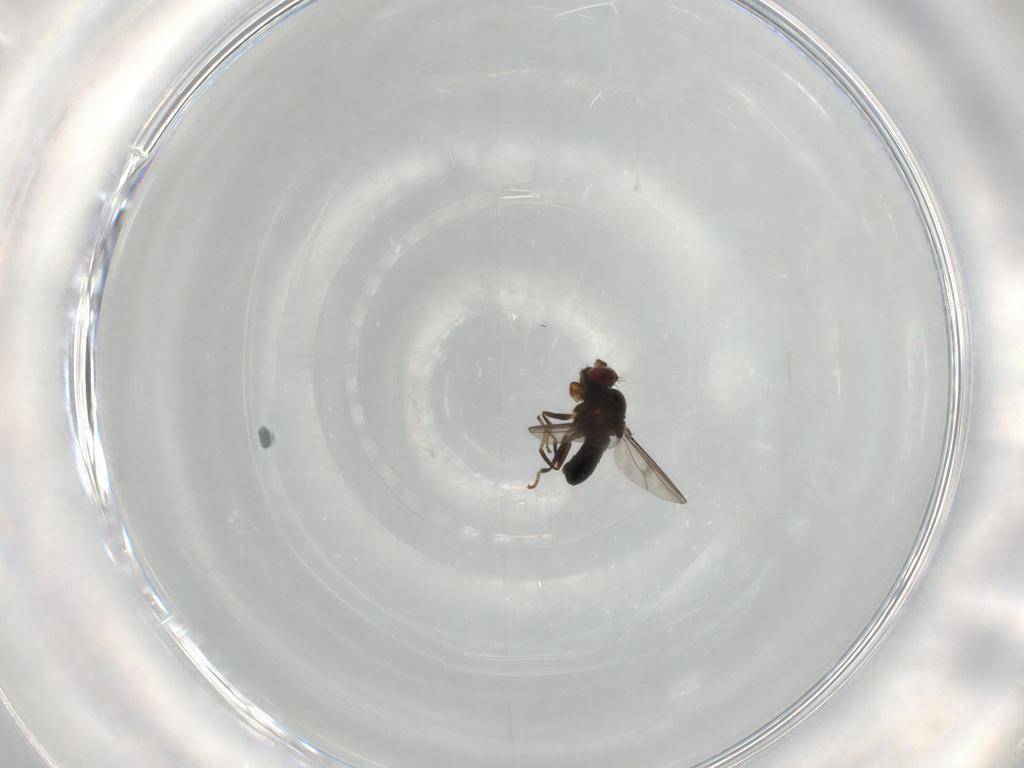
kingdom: Animalia
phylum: Arthropoda
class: Insecta
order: Diptera
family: Ephydridae
